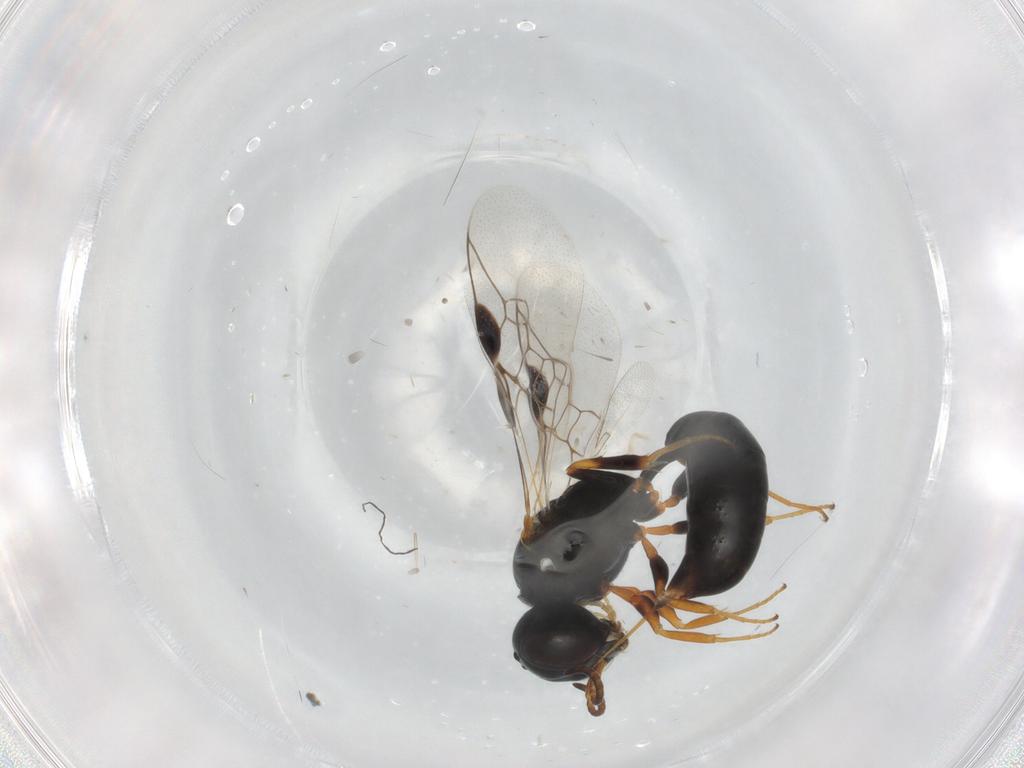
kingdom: Animalia
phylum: Arthropoda
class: Insecta
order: Hymenoptera
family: Pemphredonidae
